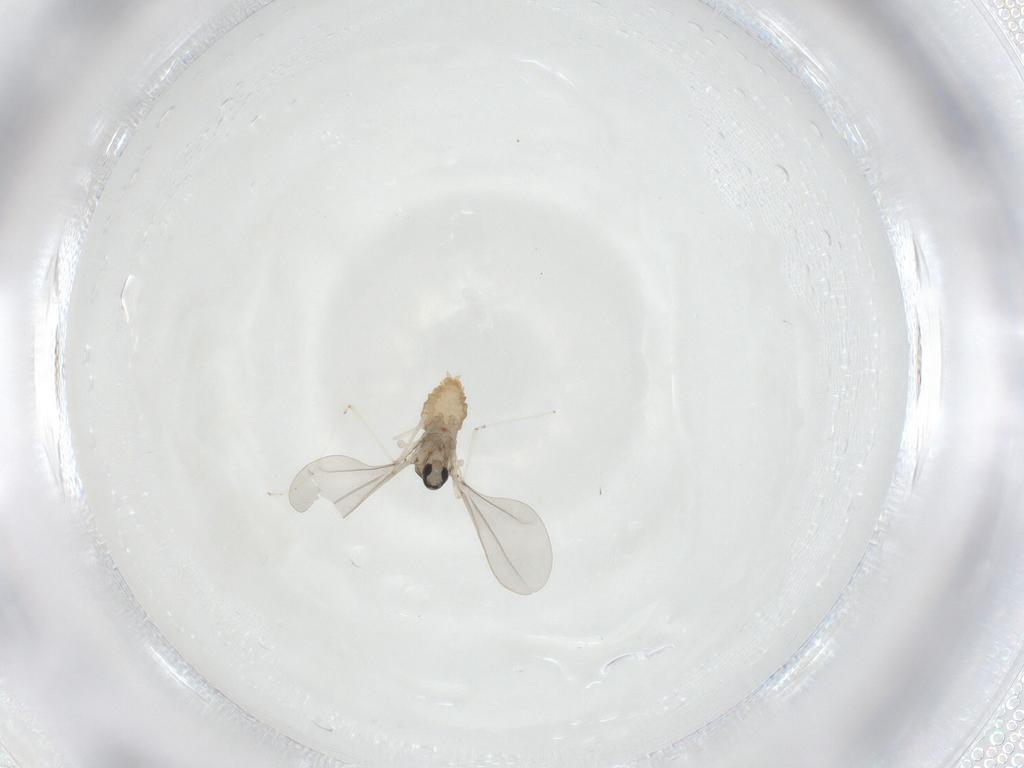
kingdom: Animalia
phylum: Arthropoda
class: Insecta
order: Diptera
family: Cecidomyiidae
